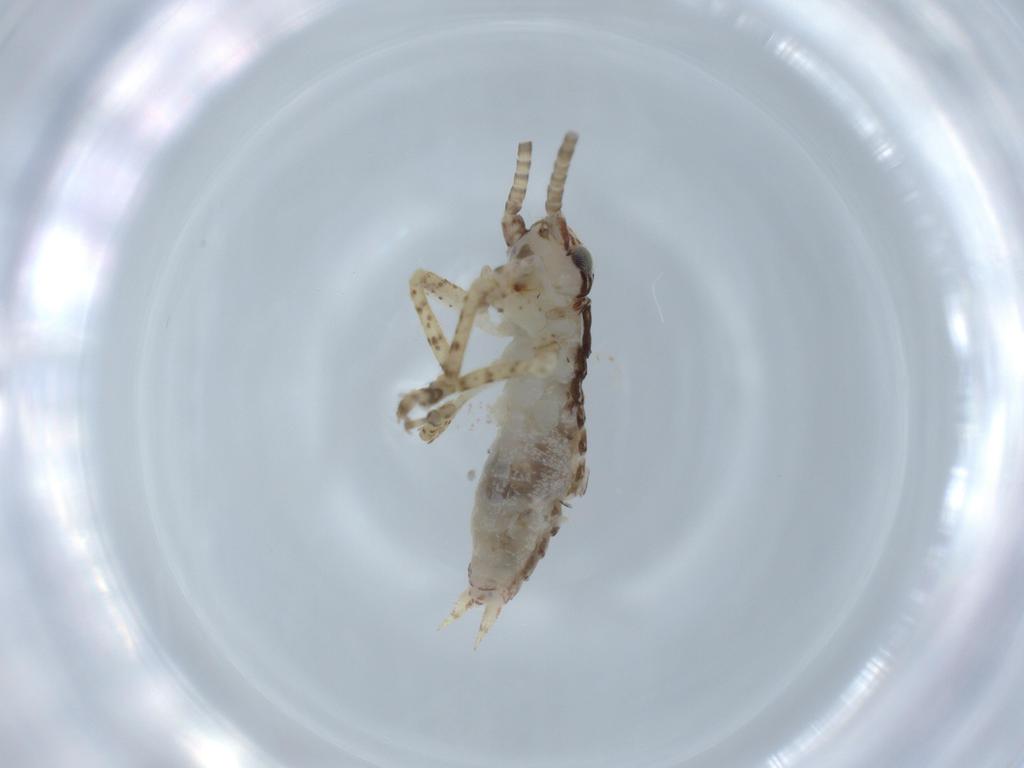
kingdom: Animalia
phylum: Arthropoda
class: Insecta
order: Orthoptera
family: Gryllidae
